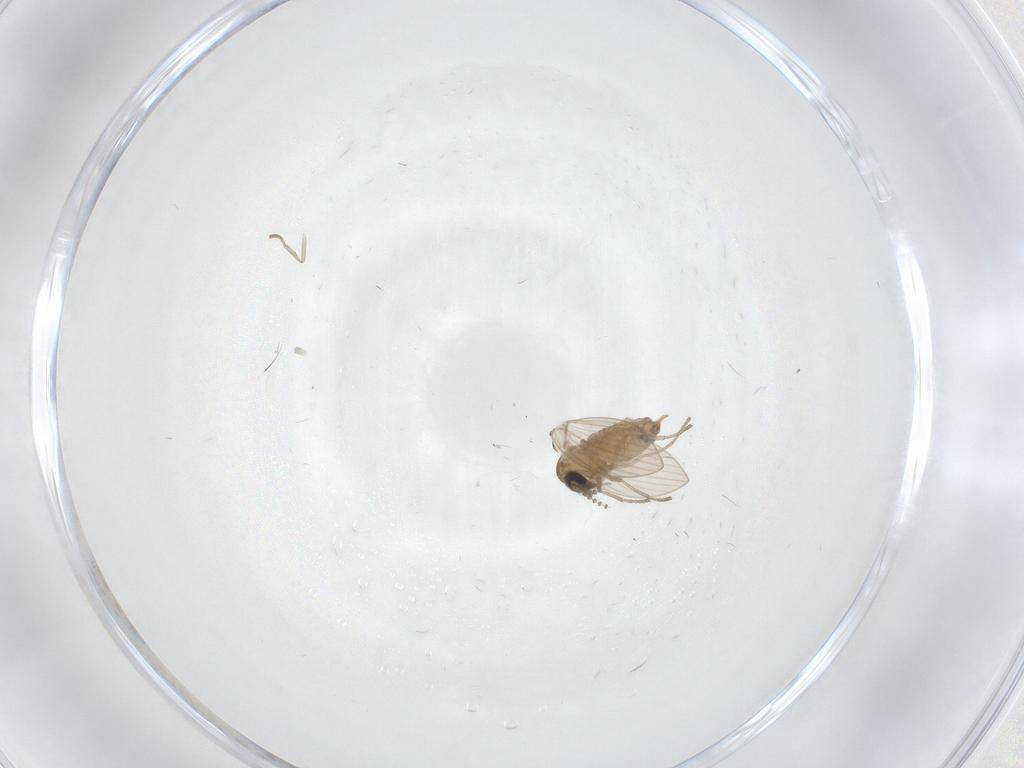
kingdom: Animalia
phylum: Arthropoda
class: Insecta
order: Diptera
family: Psychodidae
